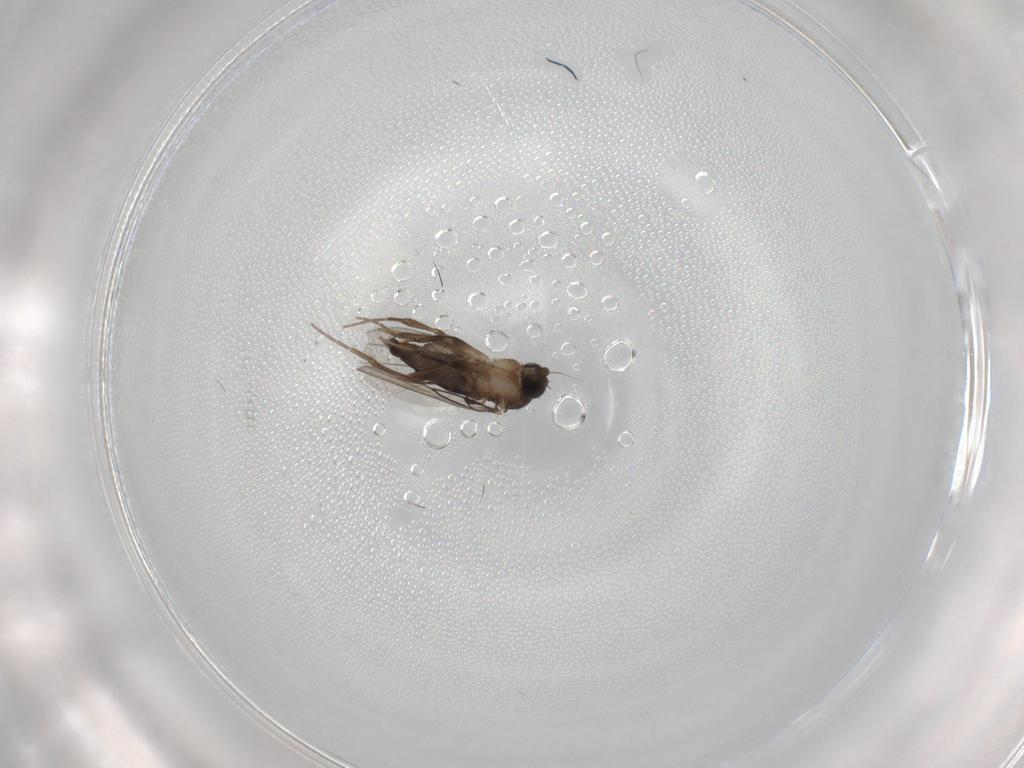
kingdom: Animalia
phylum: Arthropoda
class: Insecta
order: Diptera
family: Phoridae
